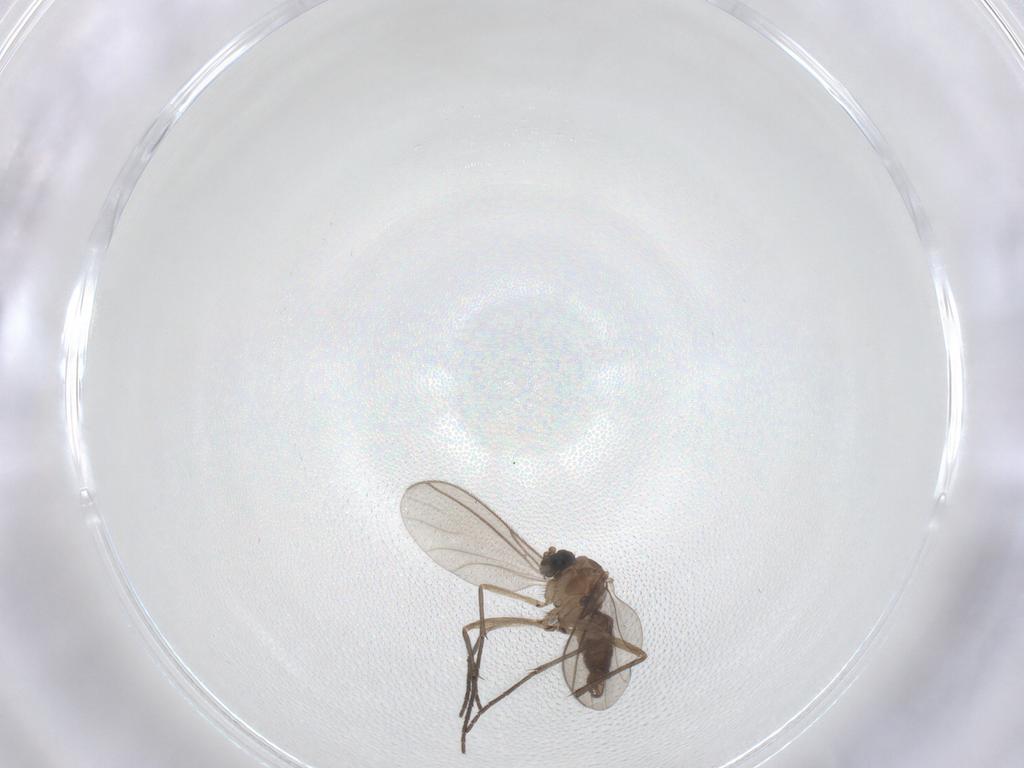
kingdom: Animalia
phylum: Arthropoda
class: Insecta
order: Diptera
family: Sciaridae
